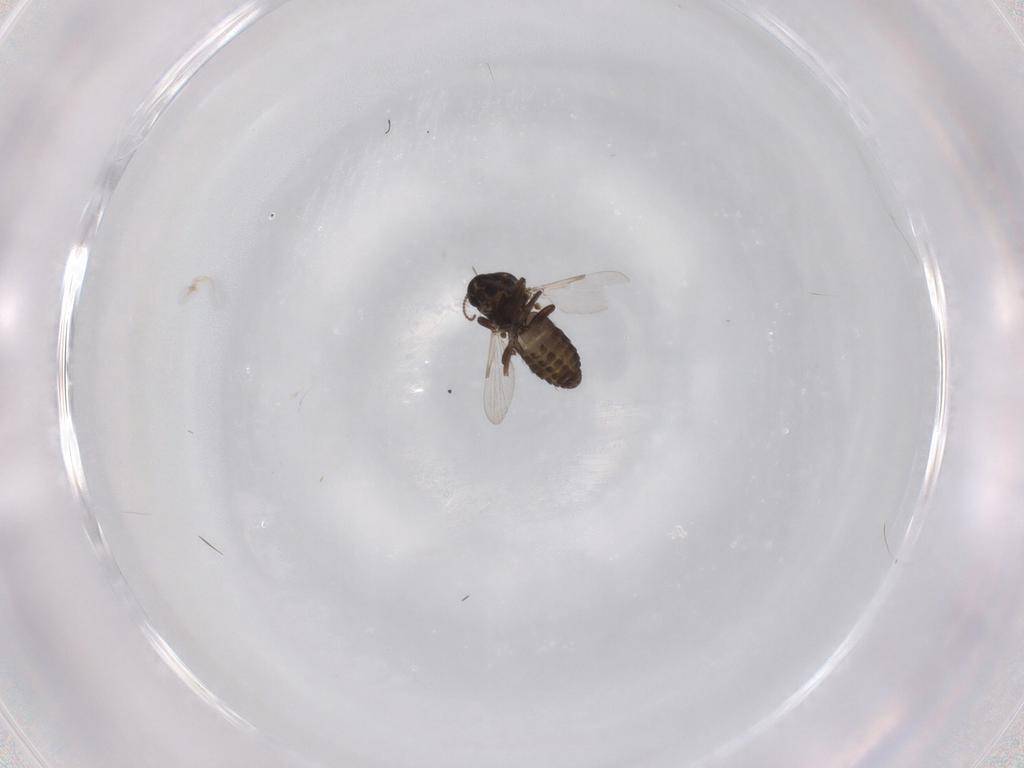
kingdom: Animalia
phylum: Arthropoda
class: Insecta
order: Diptera
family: Ceratopogonidae
